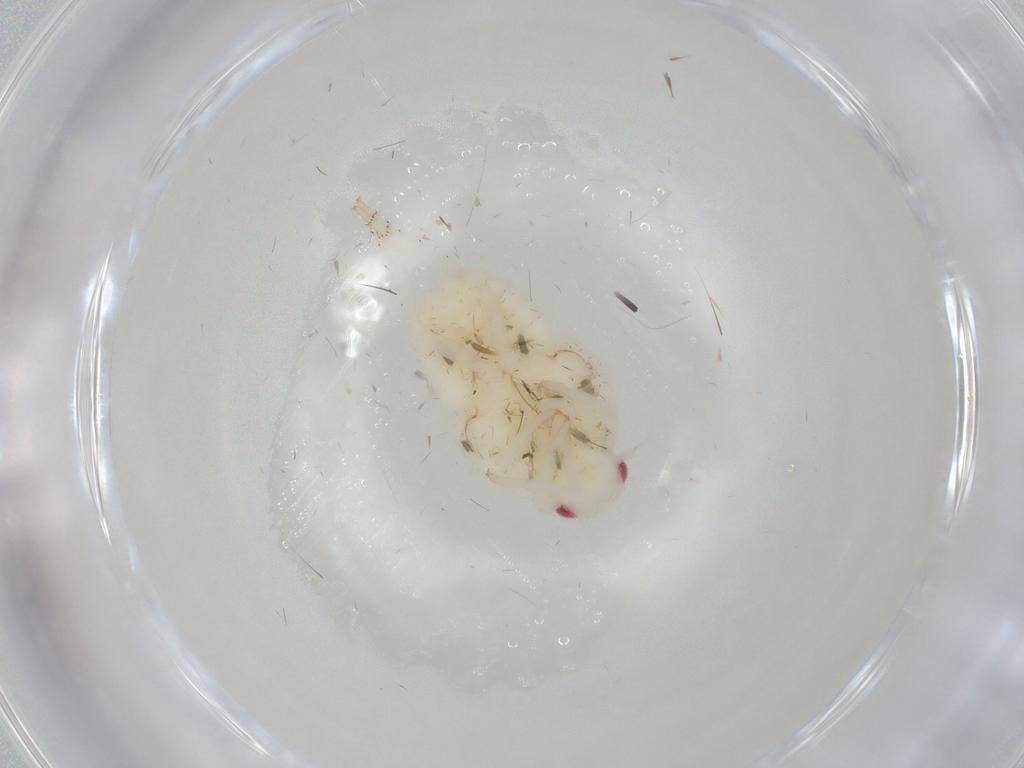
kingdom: Animalia
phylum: Arthropoda
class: Insecta
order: Hemiptera
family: Flatidae
